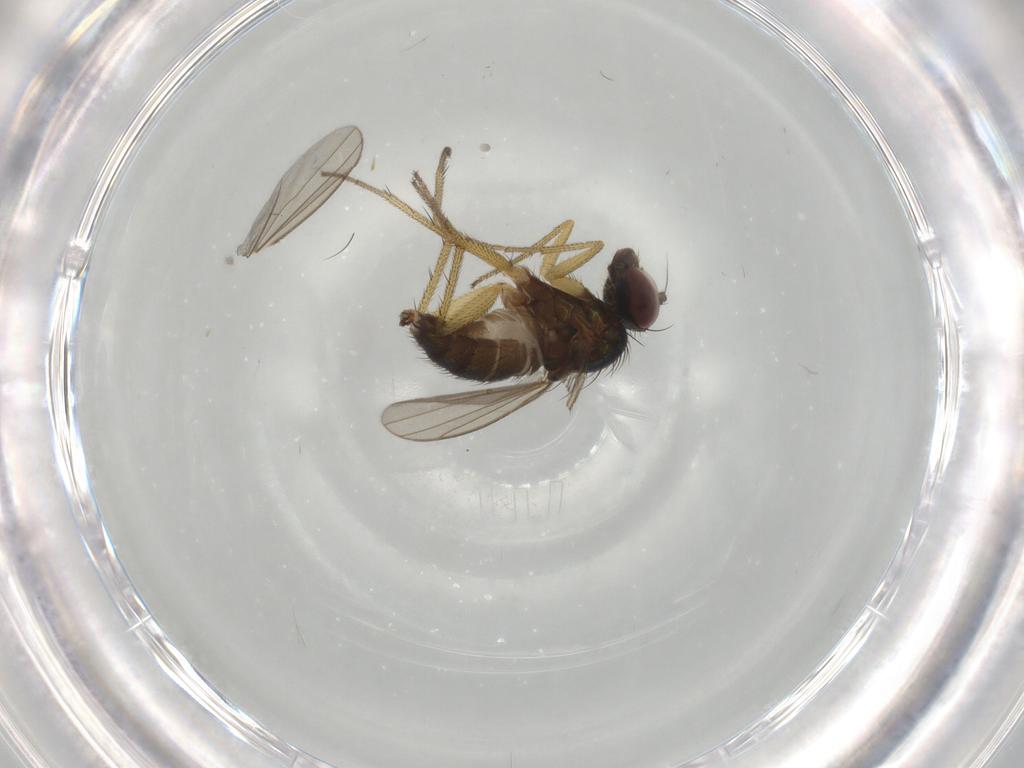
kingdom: Animalia
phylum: Arthropoda
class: Insecta
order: Diptera
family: Dolichopodidae
